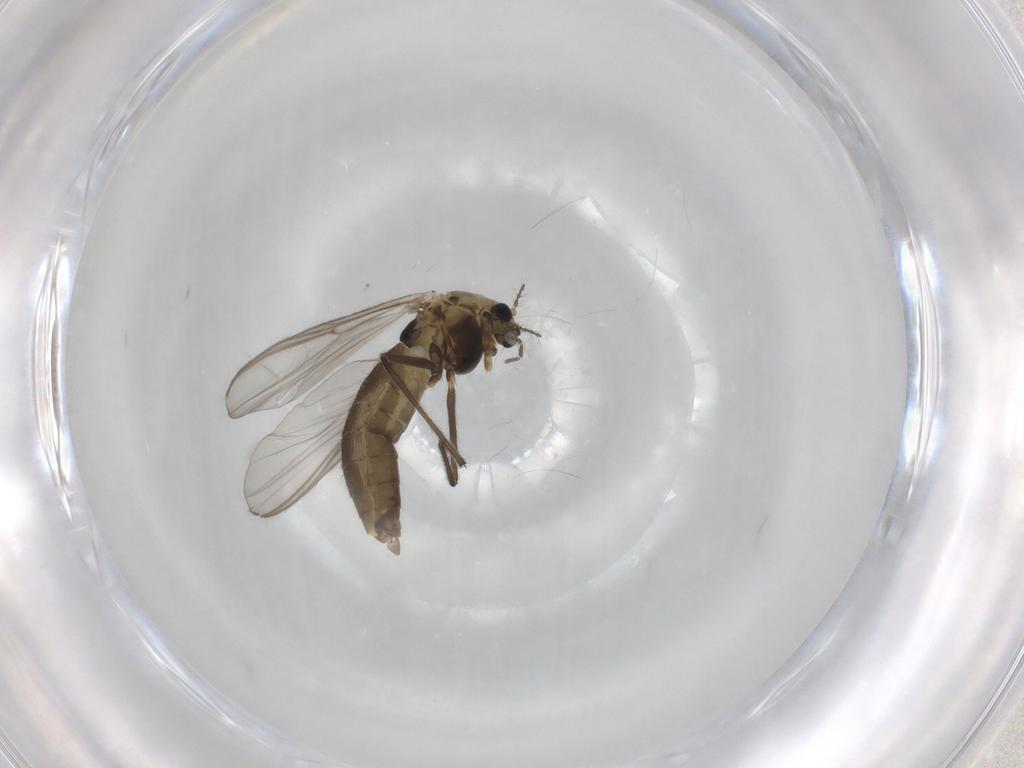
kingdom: Animalia
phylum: Arthropoda
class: Insecta
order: Diptera
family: Chironomidae
